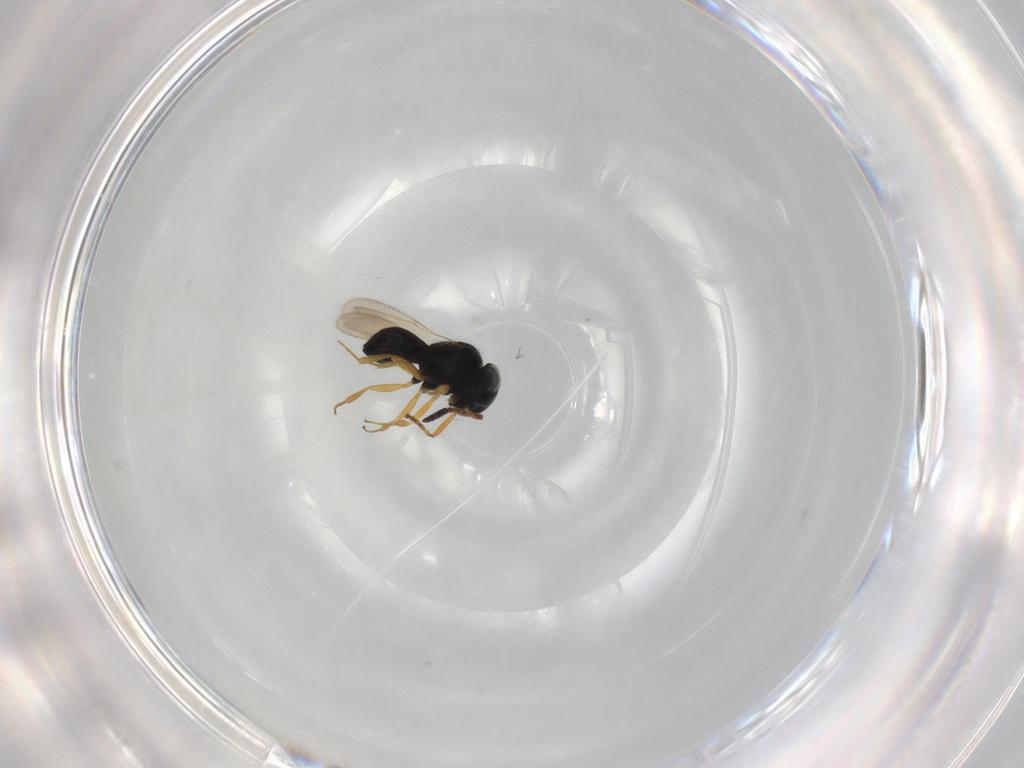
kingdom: Animalia
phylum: Arthropoda
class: Insecta
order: Hymenoptera
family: Scelionidae
